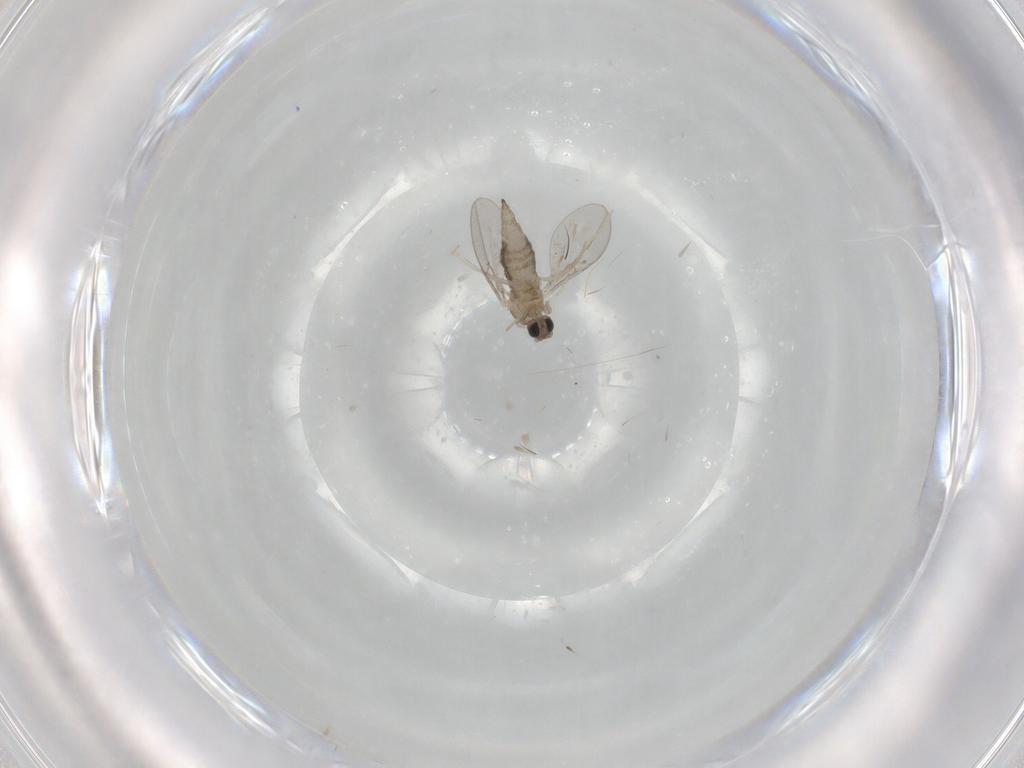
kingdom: Animalia
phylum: Arthropoda
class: Insecta
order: Diptera
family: Cecidomyiidae
